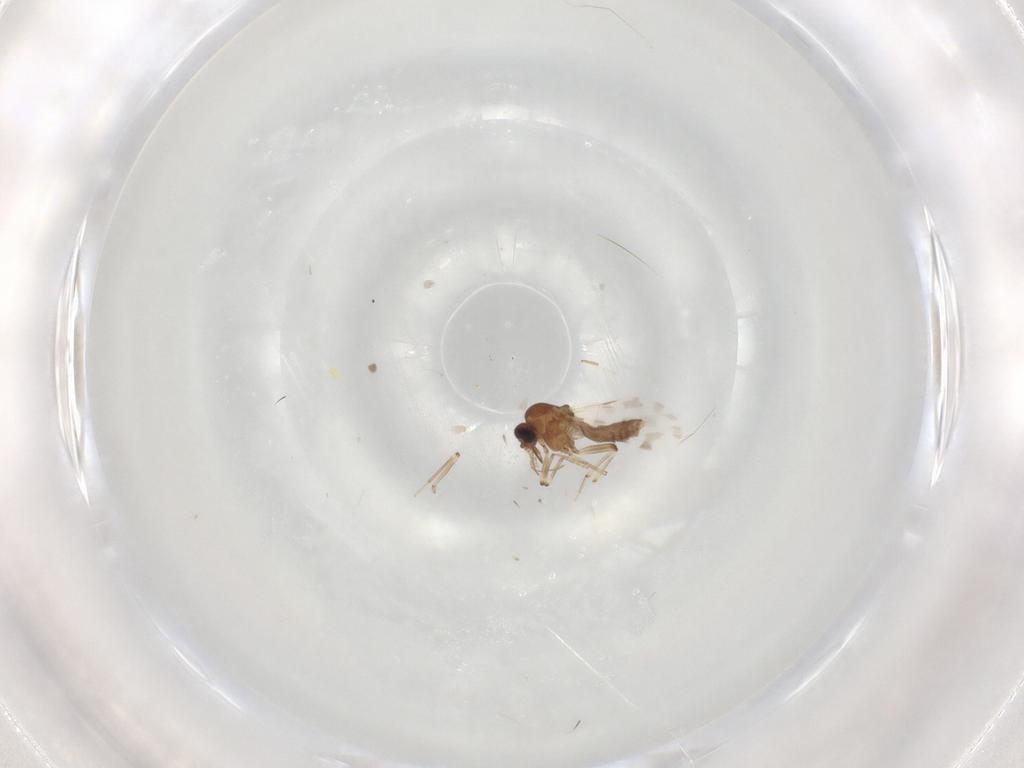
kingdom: Animalia
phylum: Arthropoda
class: Insecta
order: Diptera
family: Ceratopogonidae
